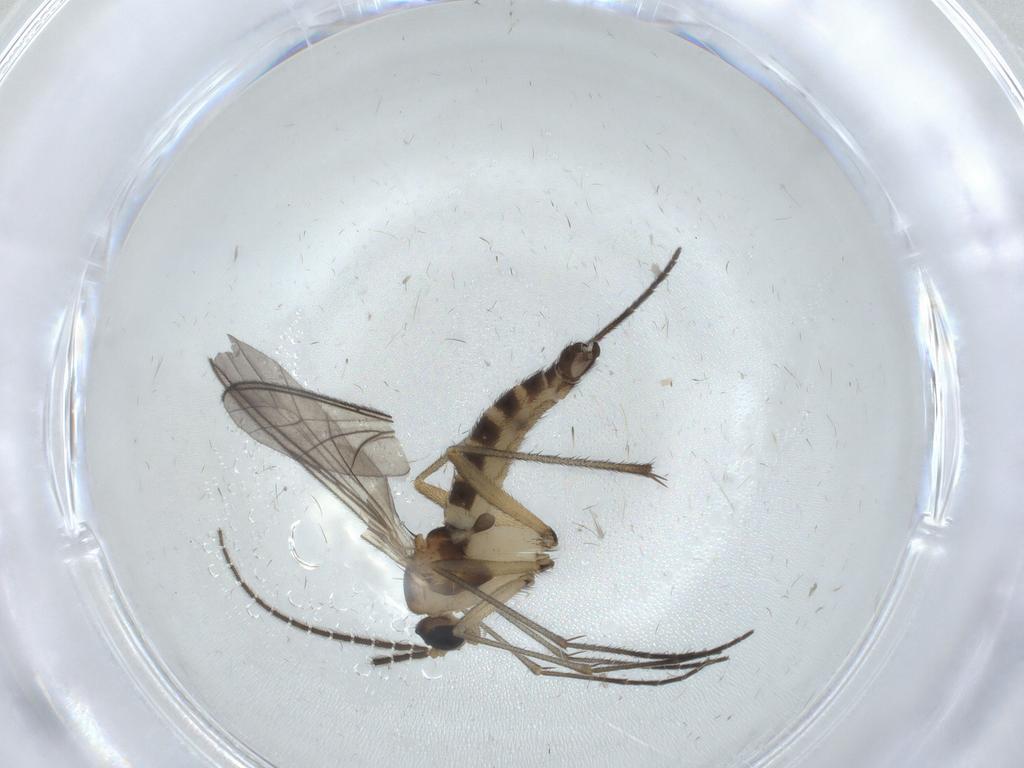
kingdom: Animalia
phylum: Arthropoda
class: Insecta
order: Diptera
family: Sciaridae
